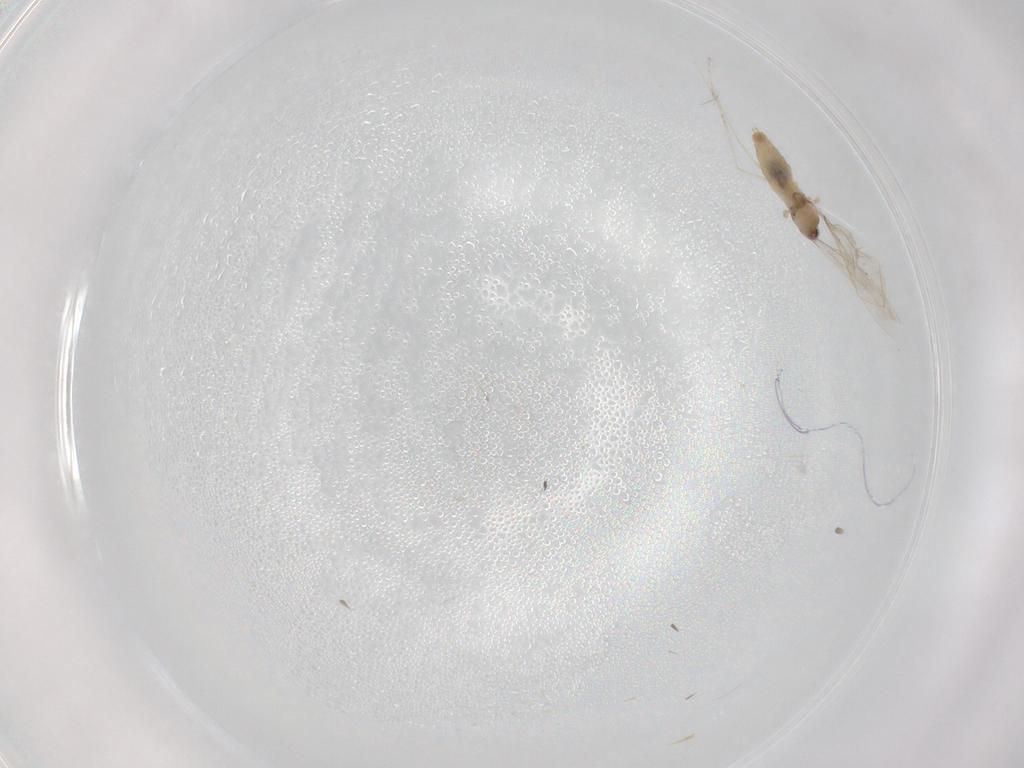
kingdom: Animalia
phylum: Arthropoda
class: Insecta
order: Diptera
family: Cecidomyiidae
